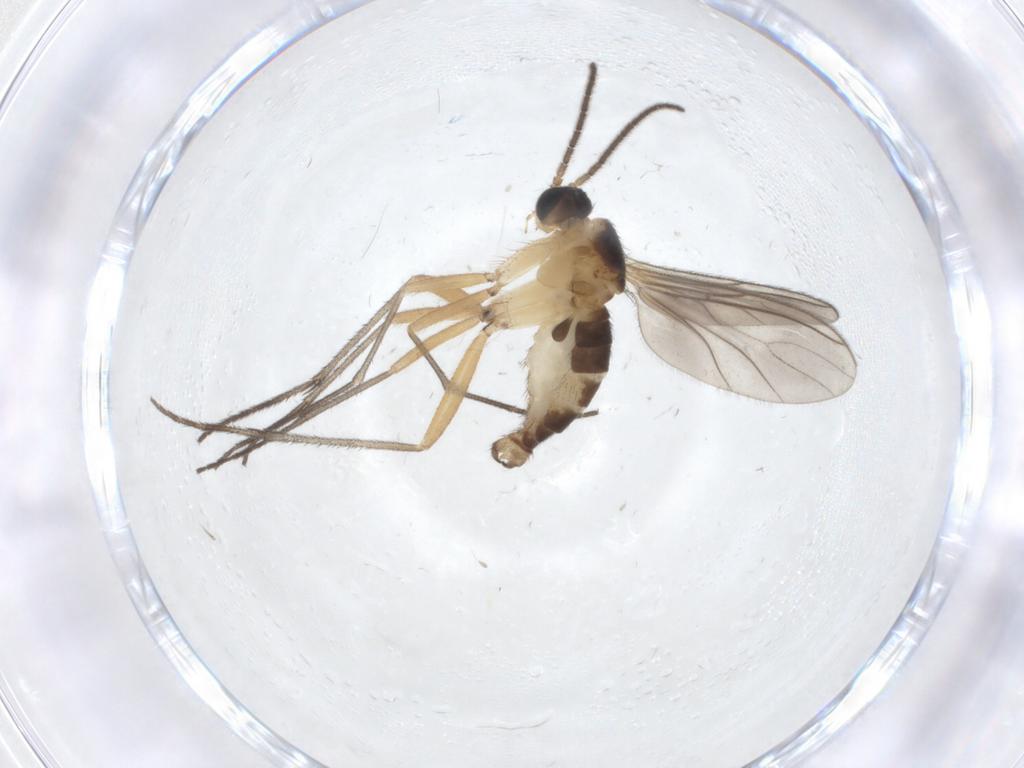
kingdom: Animalia
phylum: Arthropoda
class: Insecta
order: Diptera
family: Sciaridae
